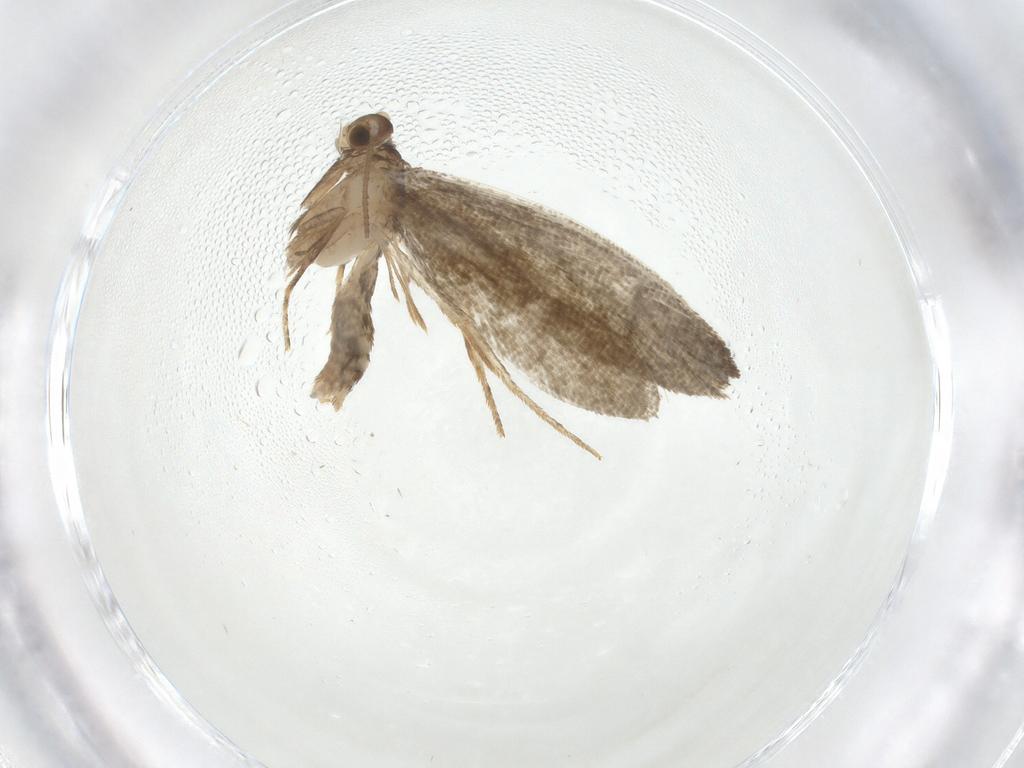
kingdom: Animalia
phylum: Arthropoda
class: Insecta
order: Lepidoptera
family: Tineidae
